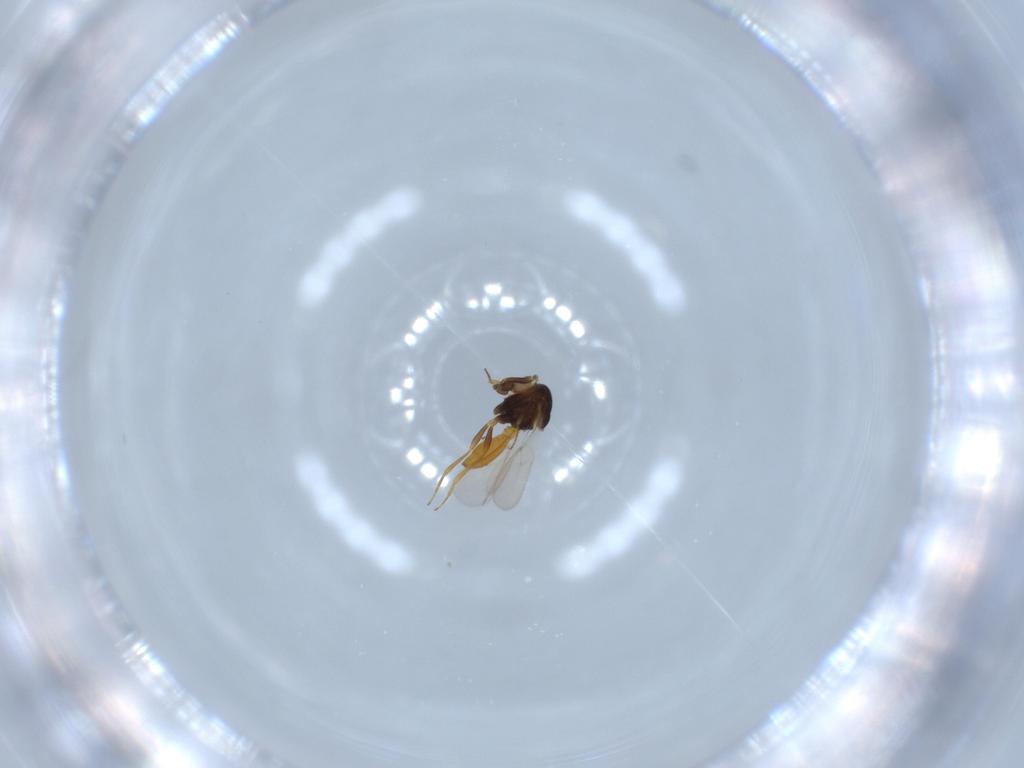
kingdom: Animalia
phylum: Arthropoda
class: Insecta
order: Hymenoptera
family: Scelionidae
